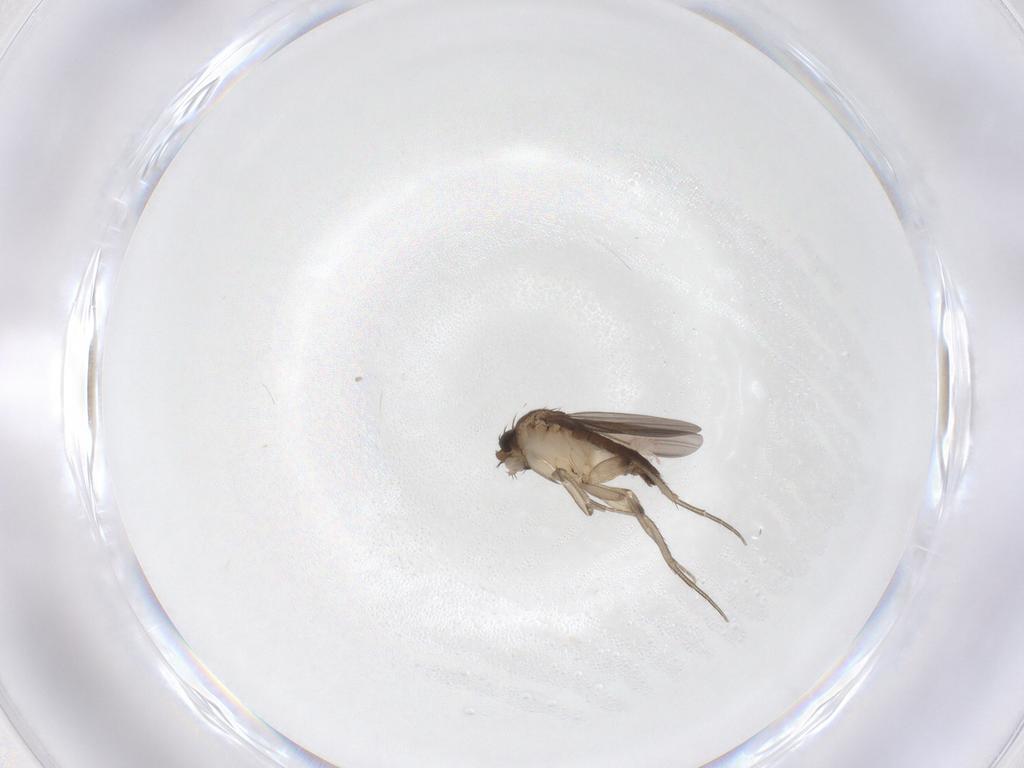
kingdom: Animalia
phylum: Arthropoda
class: Insecta
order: Diptera
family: Phoridae
